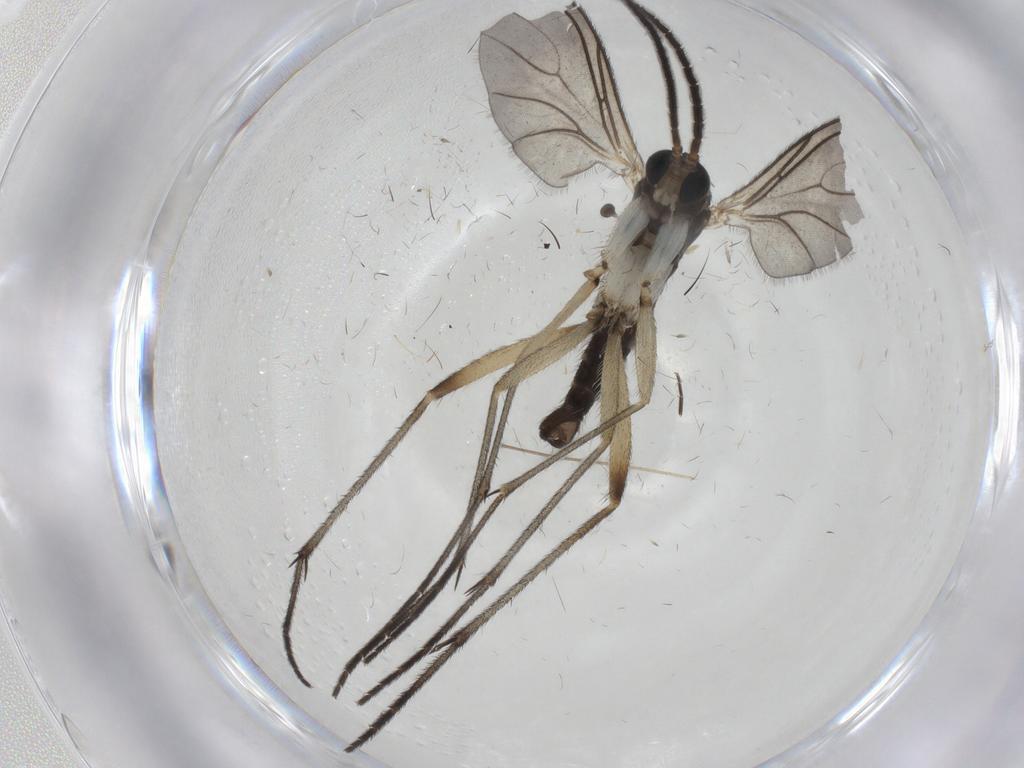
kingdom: Animalia
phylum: Arthropoda
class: Insecta
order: Diptera
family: Sciaridae
